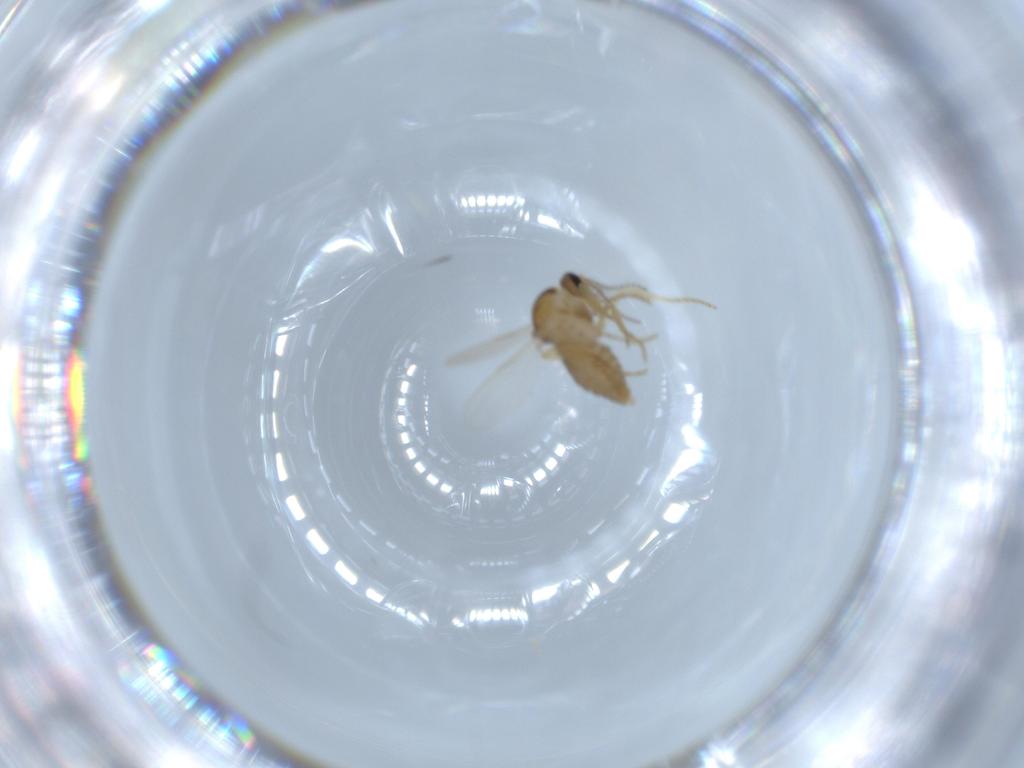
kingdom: Animalia
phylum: Arthropoda
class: Insecta
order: Diptera
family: Ceratopogonidae
